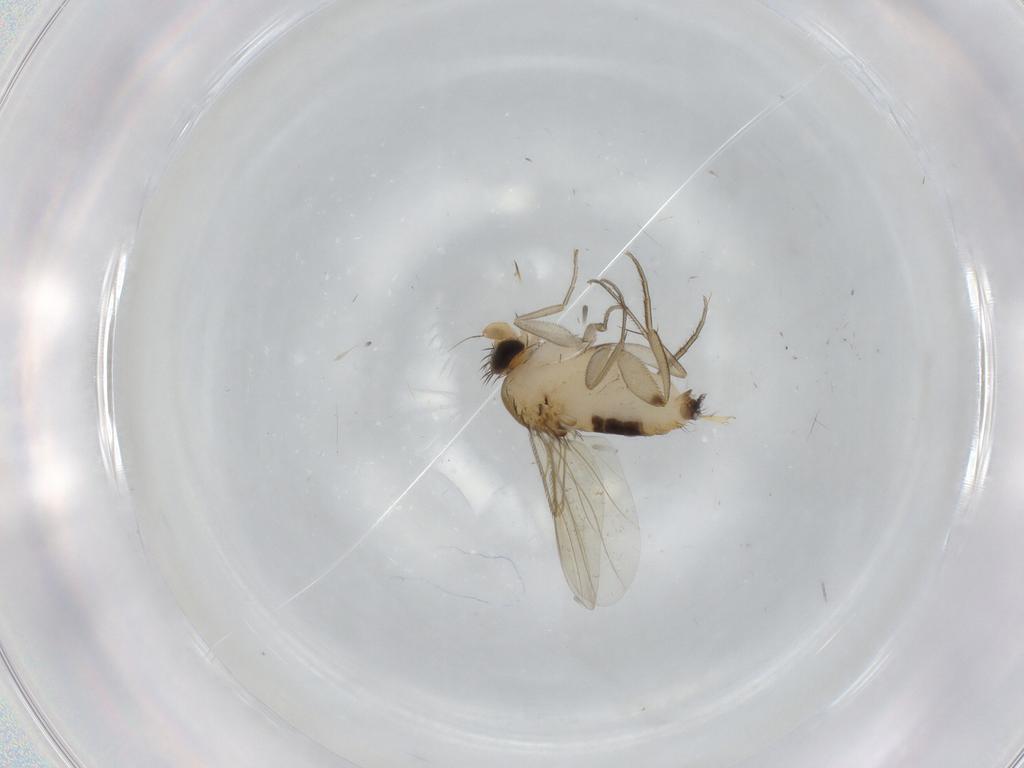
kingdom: Animalia
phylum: Arthropoda
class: Insecta
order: Diptera
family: Phoridae
